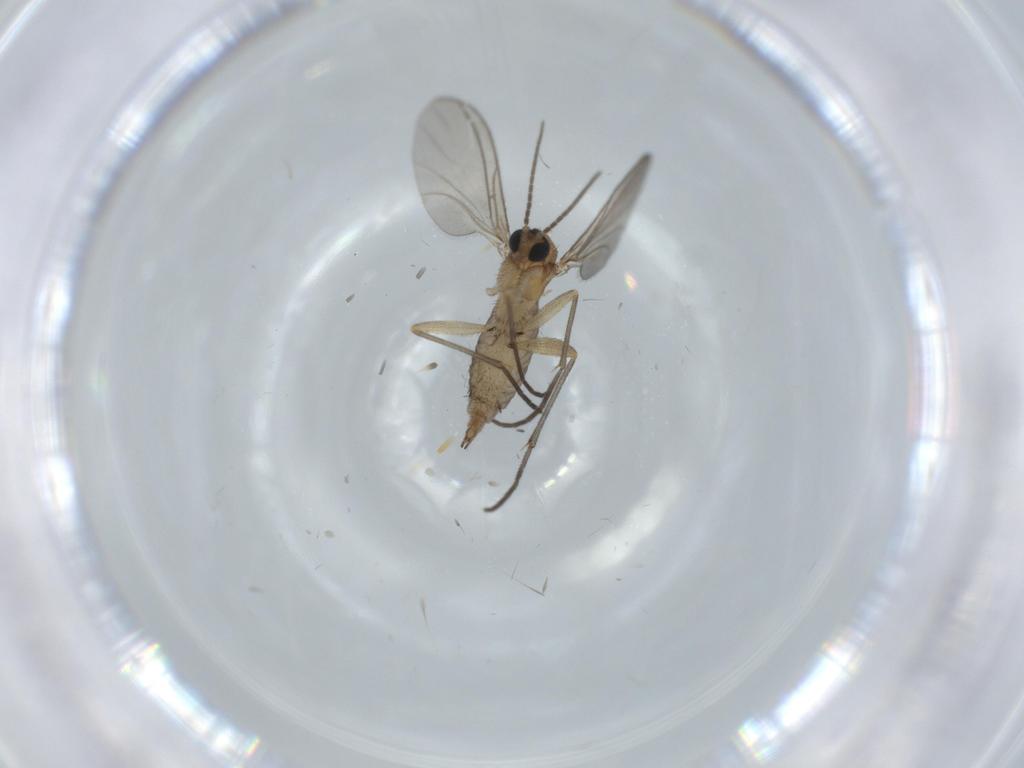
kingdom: Animalia
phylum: Arthropoda
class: Insecta
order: Diptera
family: Sciaridae
